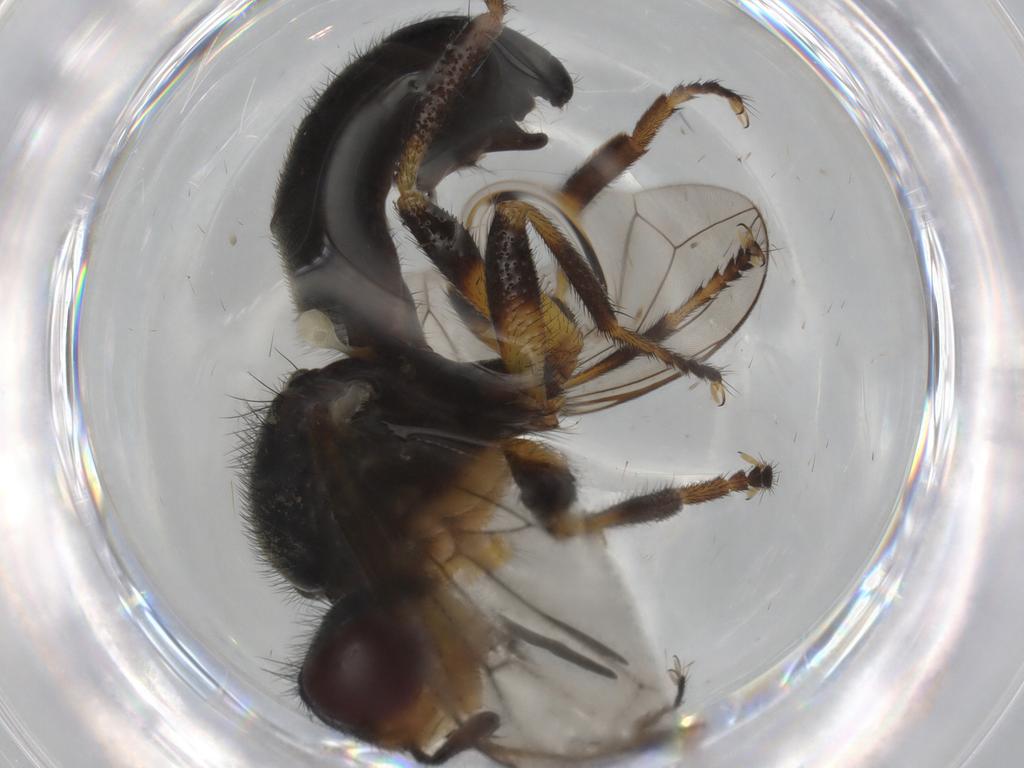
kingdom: Animalia
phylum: Arthropoda
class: Insecta
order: Diptera
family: Conopidae
